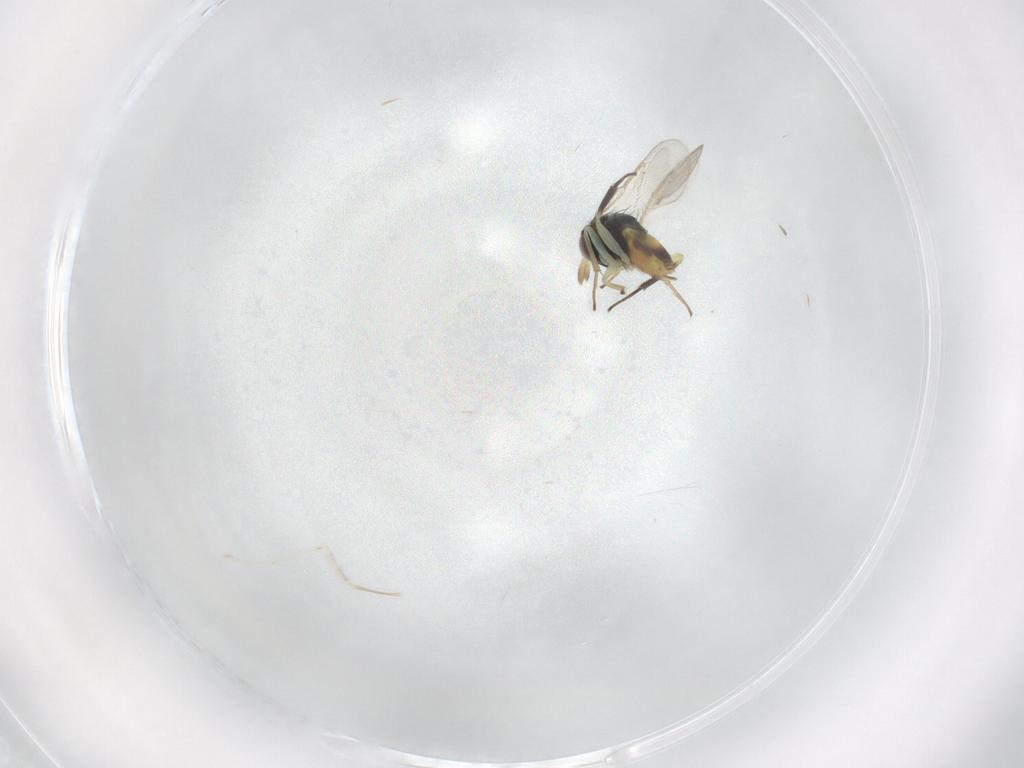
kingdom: Animalia
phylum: Arthropoda
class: Insecta
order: Hymenoptera
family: Aphelinidae
